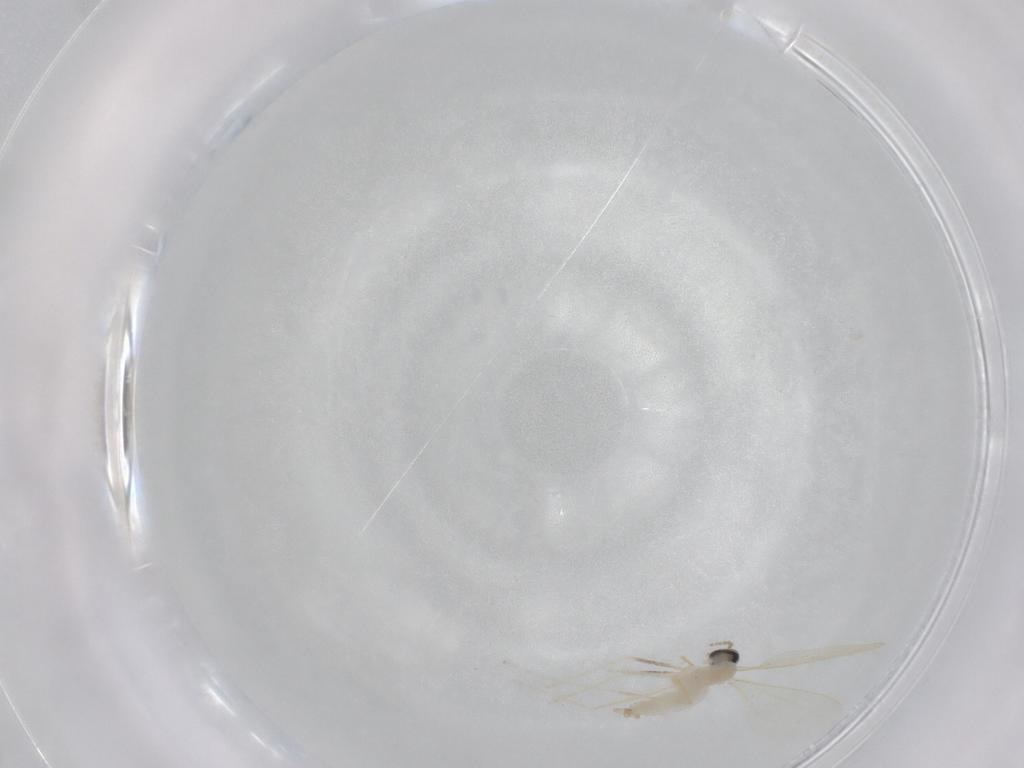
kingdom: Animalia
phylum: Arthropoda
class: Insecta
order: Diptera
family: Cecidomyiidae
